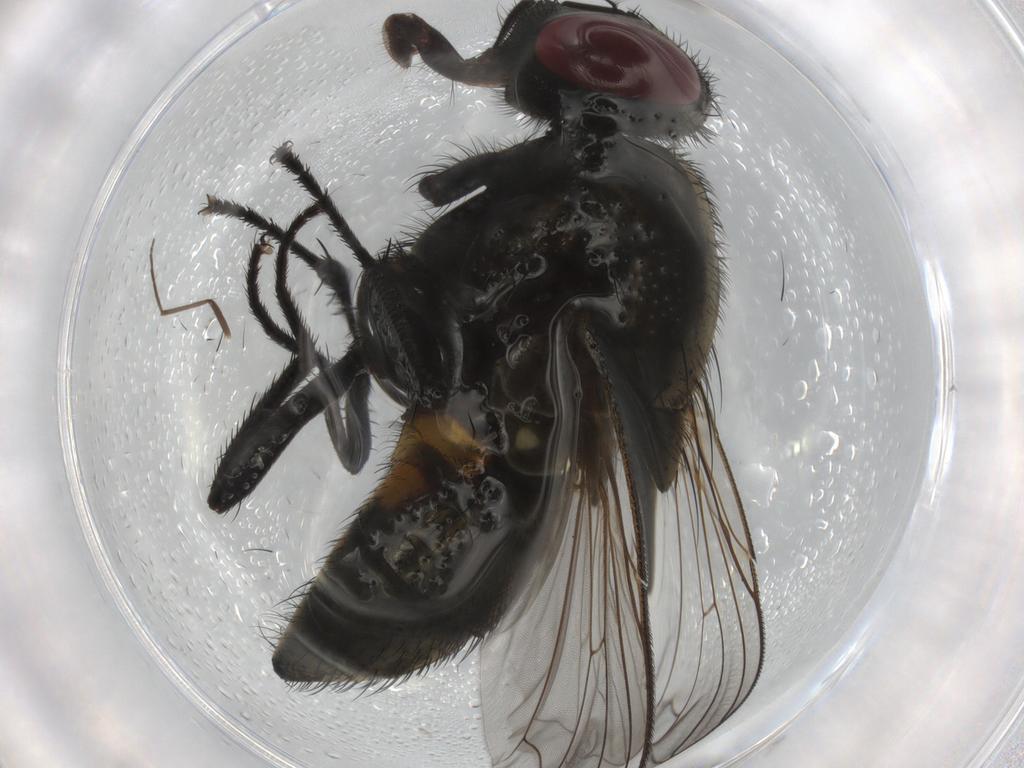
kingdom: Animalia
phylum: Arthropoda
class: Insecta
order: Diptera
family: Muscidae
